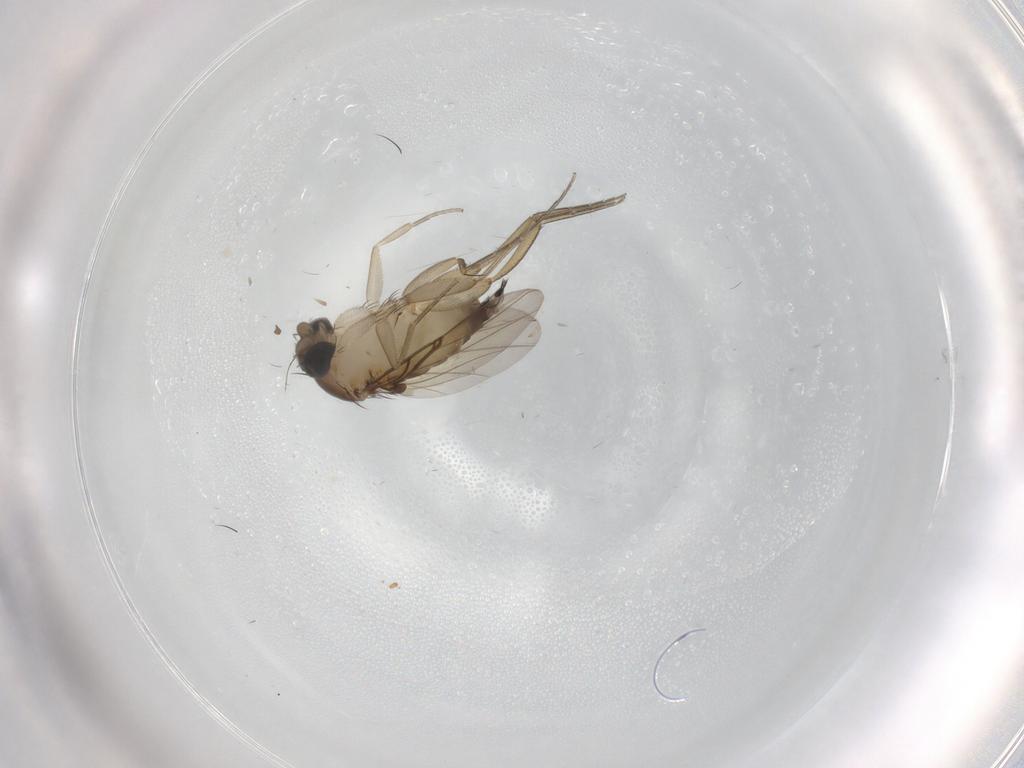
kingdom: Animalia
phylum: Arthropoda
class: Insecta
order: Diptera
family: Phoridae
